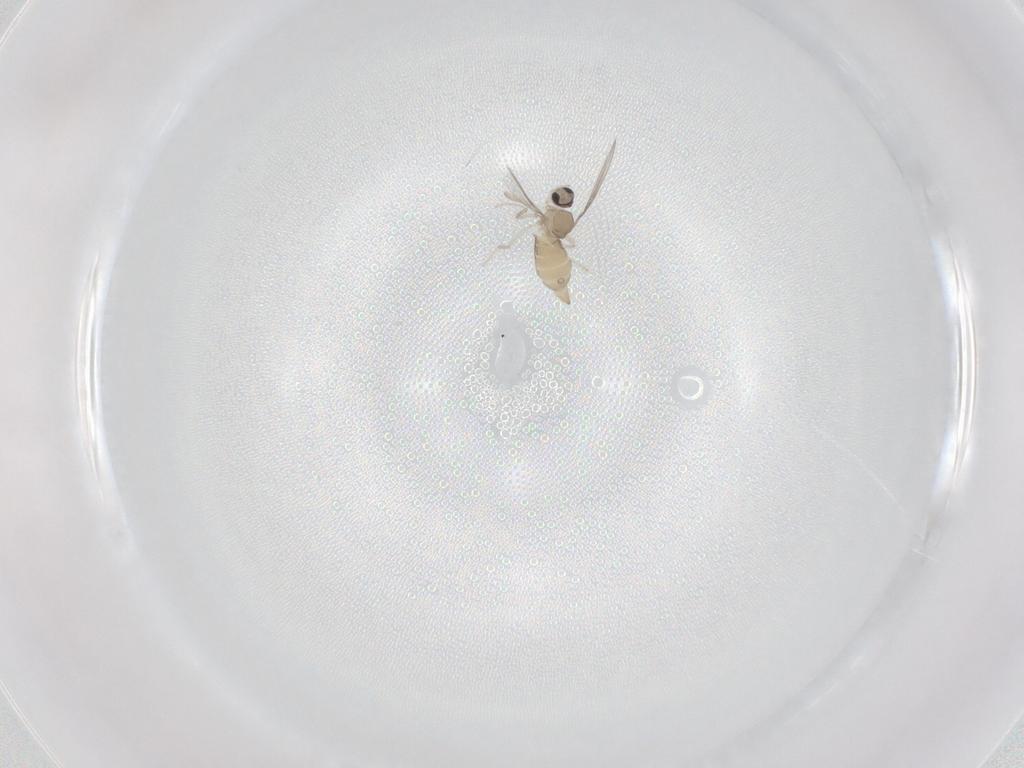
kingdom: Animalia
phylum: Arthropoda
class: Insecta
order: Diptera
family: Cecidomyiidae
